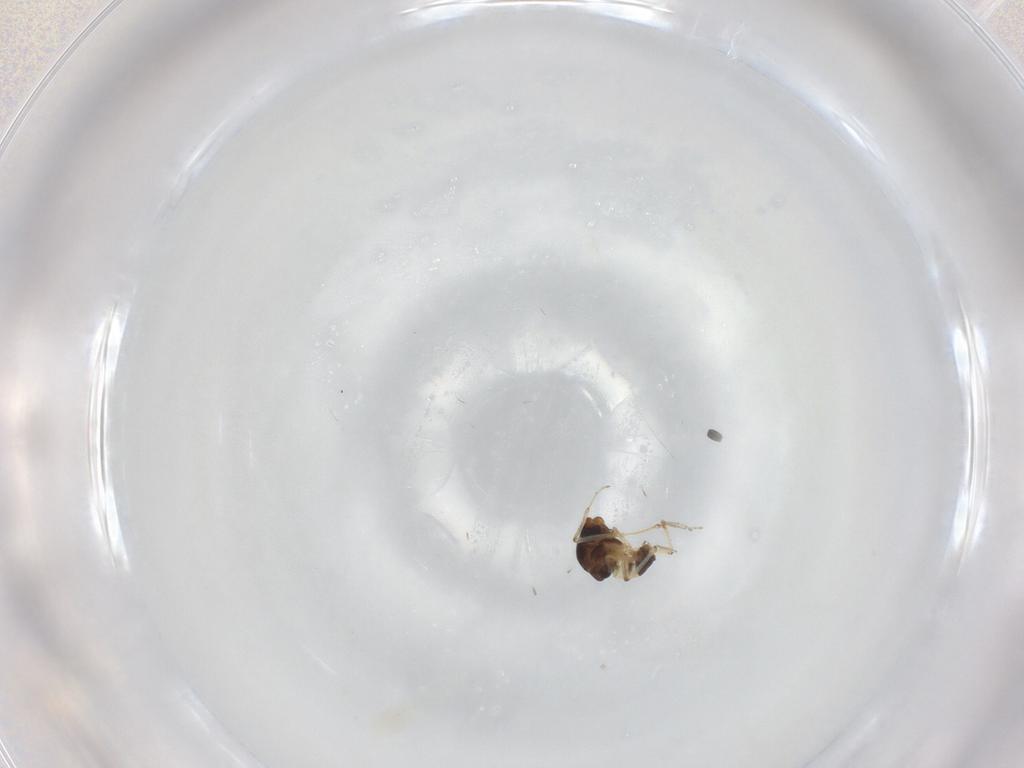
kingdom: Animalia
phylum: Arthropoda
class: Insecta
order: Diptera
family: Ceratopogonidae
